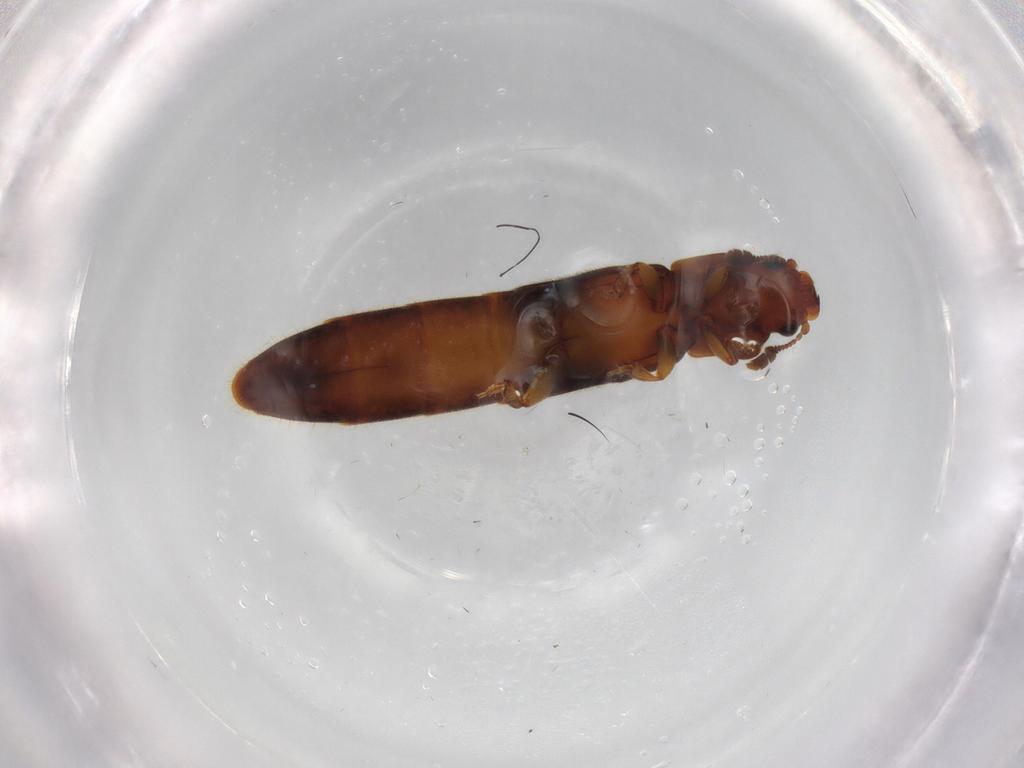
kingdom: Animalia
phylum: Arthropoda
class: Insecta
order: Coleoptera
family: Nitidulidae
